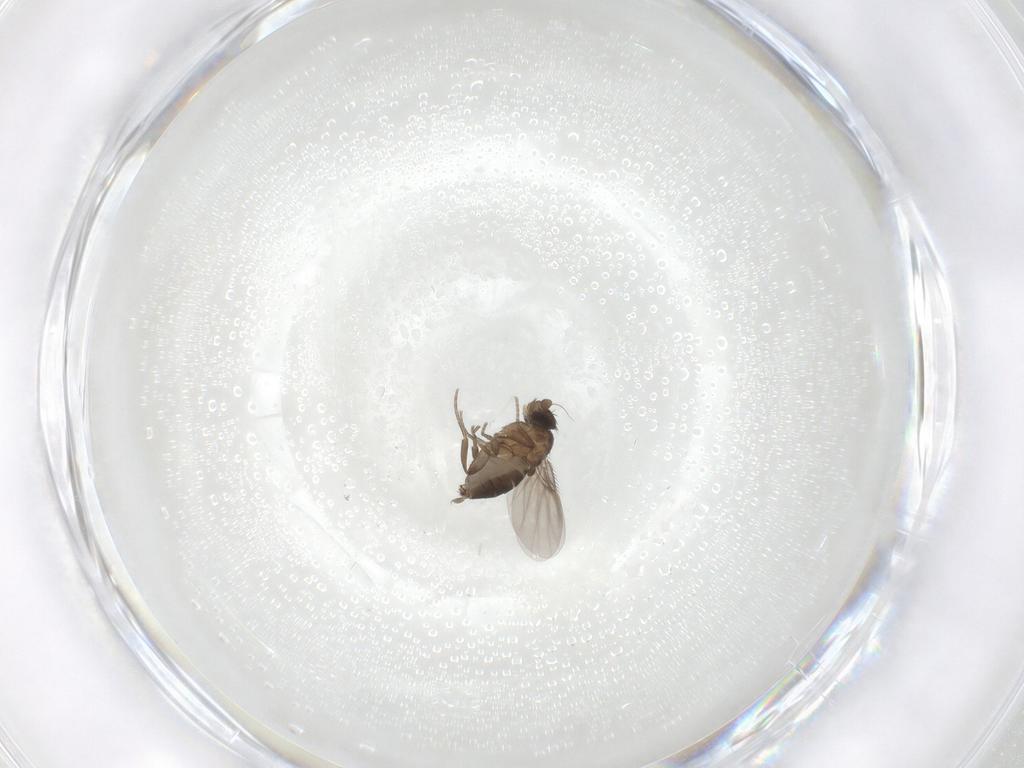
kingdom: Animalia
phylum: Arthropoda
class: Insecta
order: Diptera
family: Phoridae
